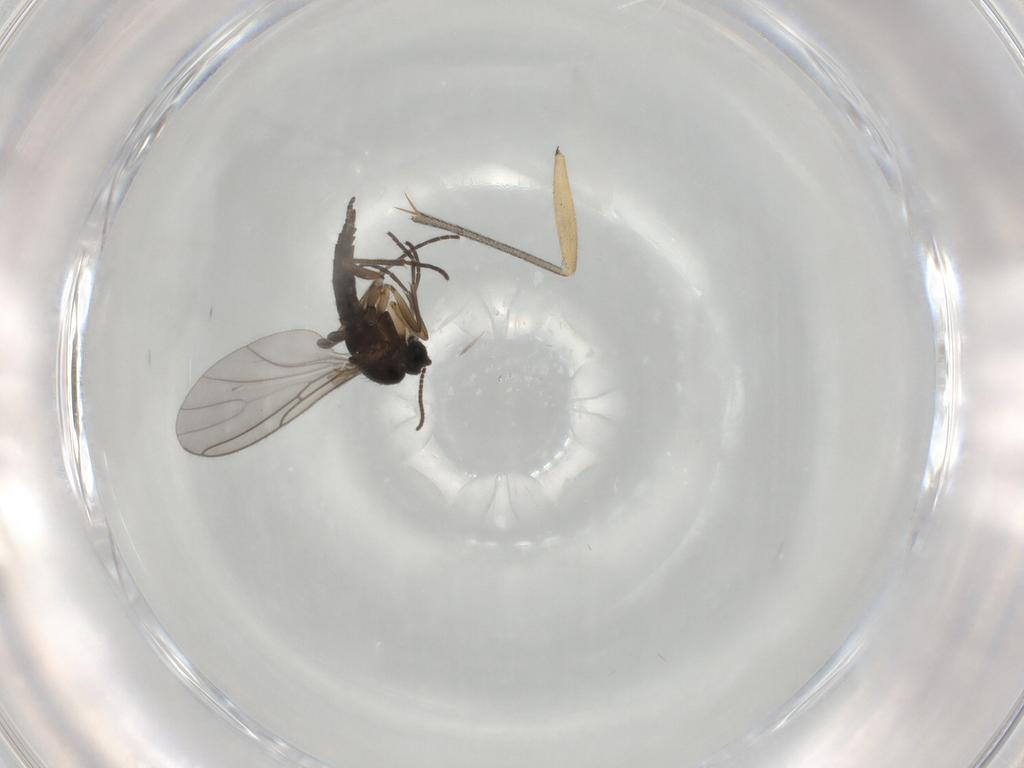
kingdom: Animalia
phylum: Arthropoda
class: Insecta
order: Diptera
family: Sciaridae
